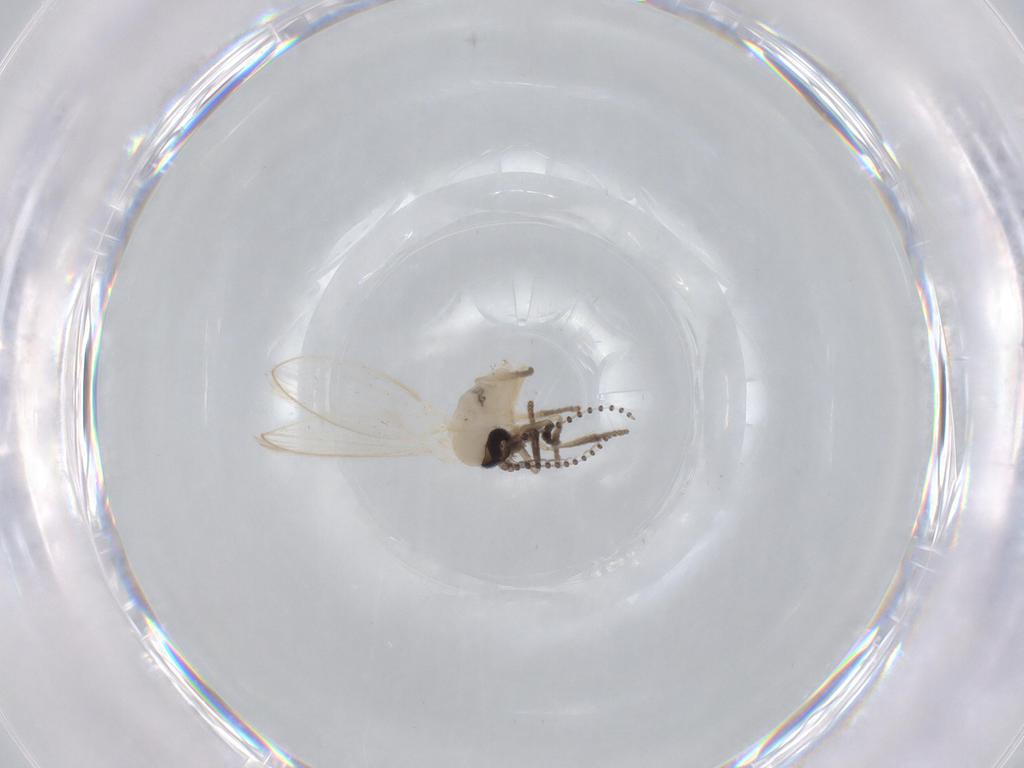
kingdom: Animalia
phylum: Arthropoda
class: Insecta
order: Diptera
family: Psychodidae
